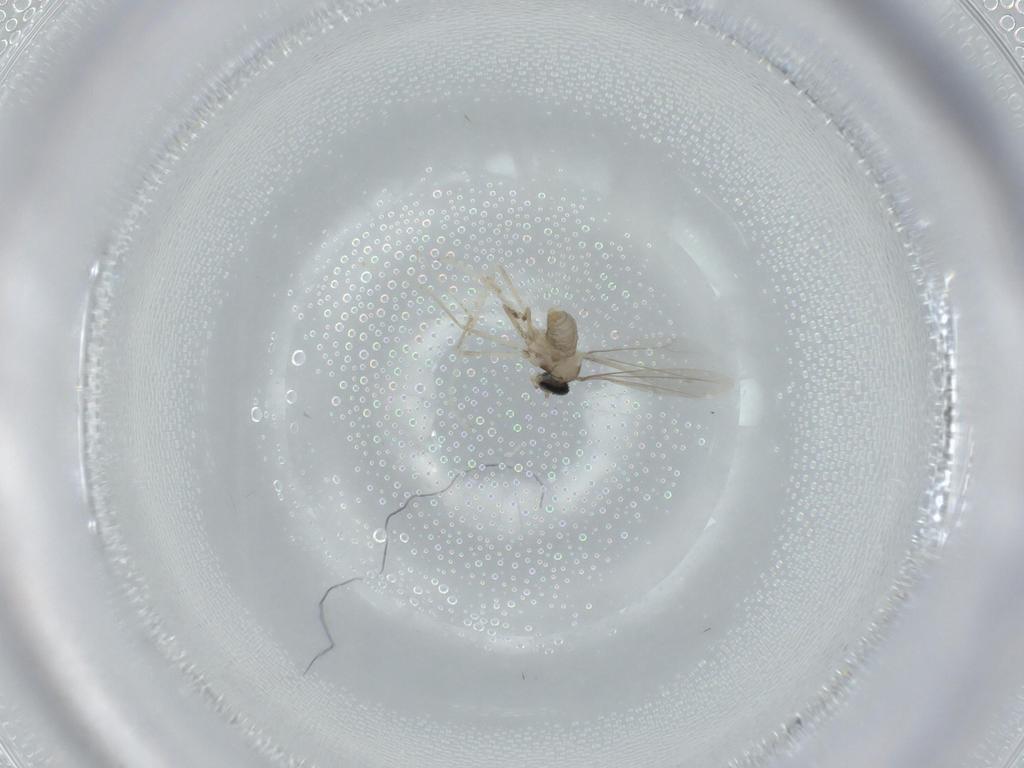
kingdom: Animalia
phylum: Arthropoda
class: Insecta
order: Diptera
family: Cecidomyiidae
